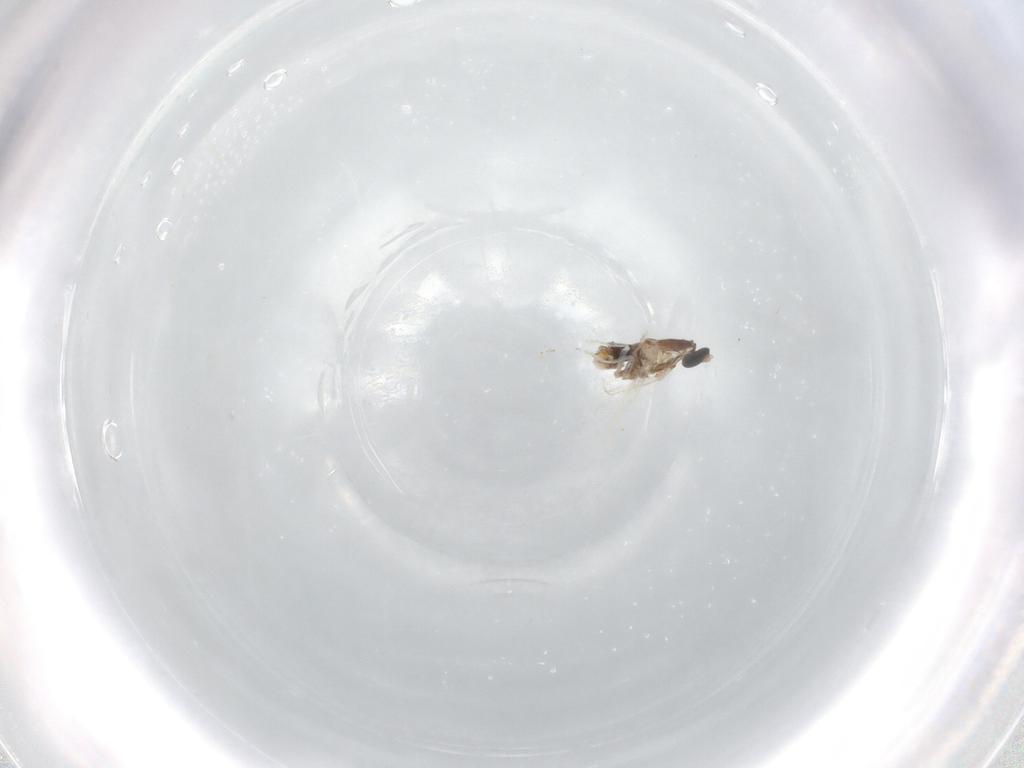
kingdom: Animalia
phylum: Arthropoda
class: Insecta
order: Diptera
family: Cecidomyiidae
